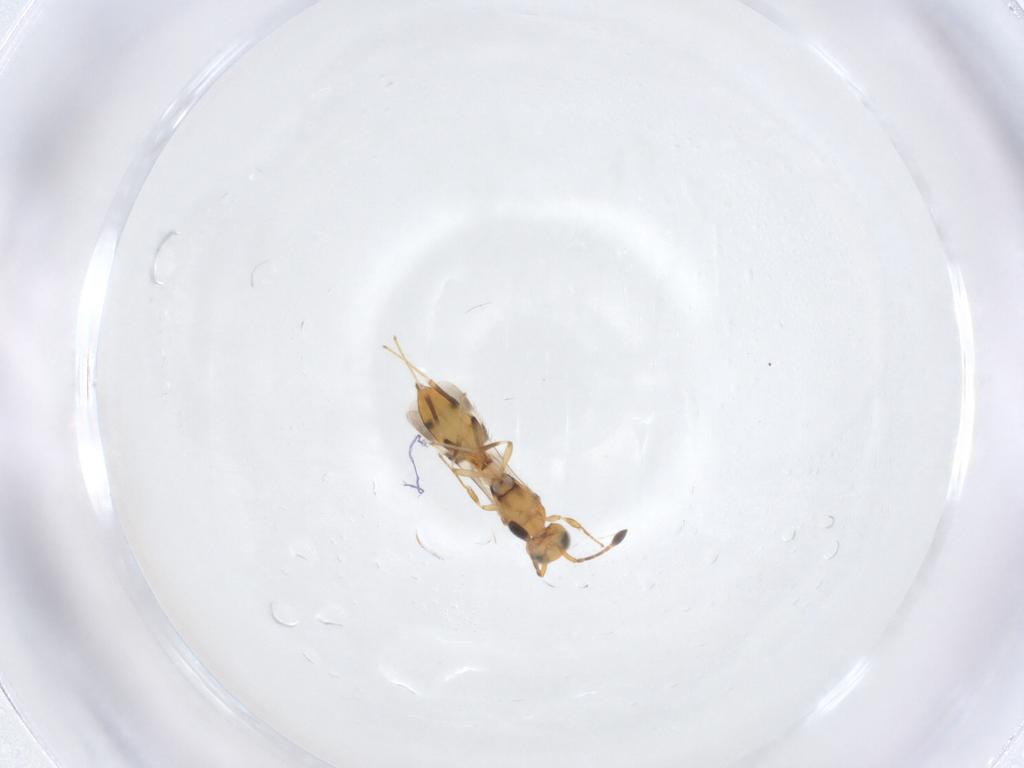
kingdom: Animalia
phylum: Arthropoda
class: Insecta
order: Hymenoptera
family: Scelionidae
